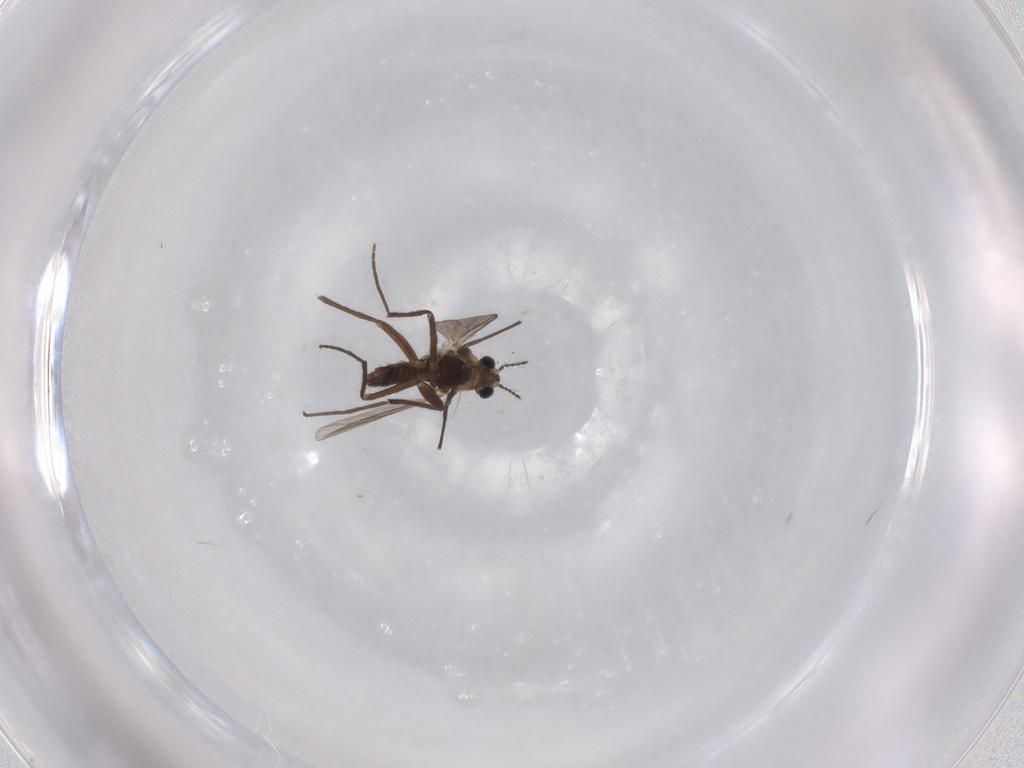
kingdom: Animalia
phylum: Arthropoda
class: Insecta
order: Diptera
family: Chironomidae
